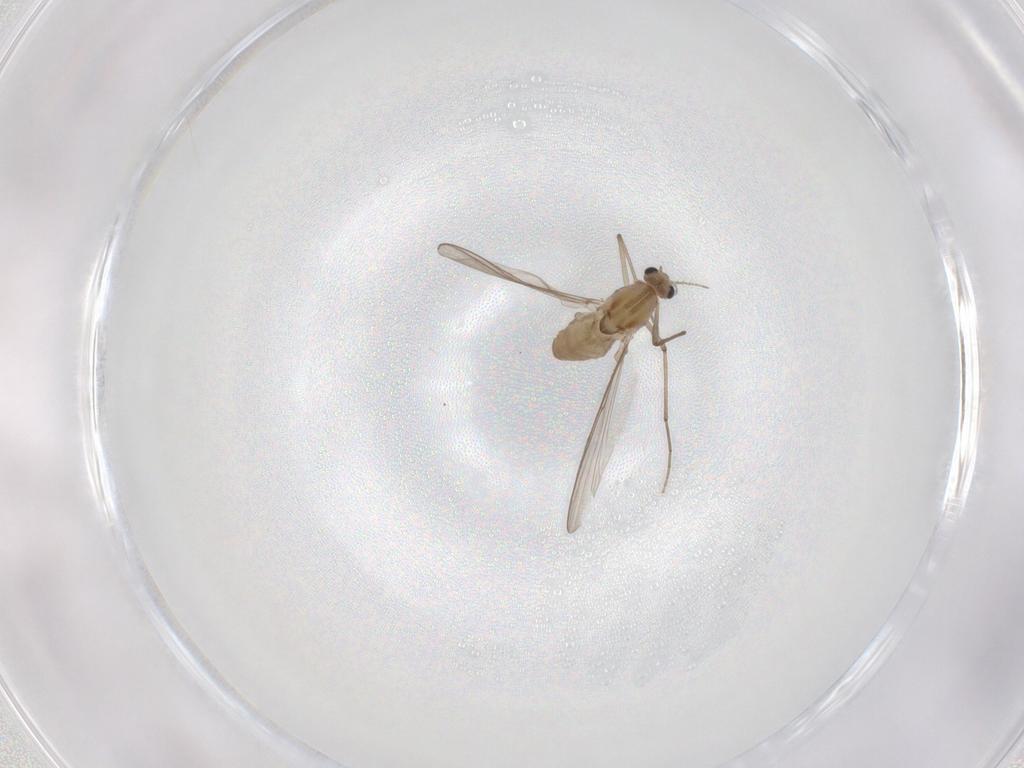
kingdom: Animalia
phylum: Arthropoda
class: Insecta
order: Diptera
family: Chironomidae
